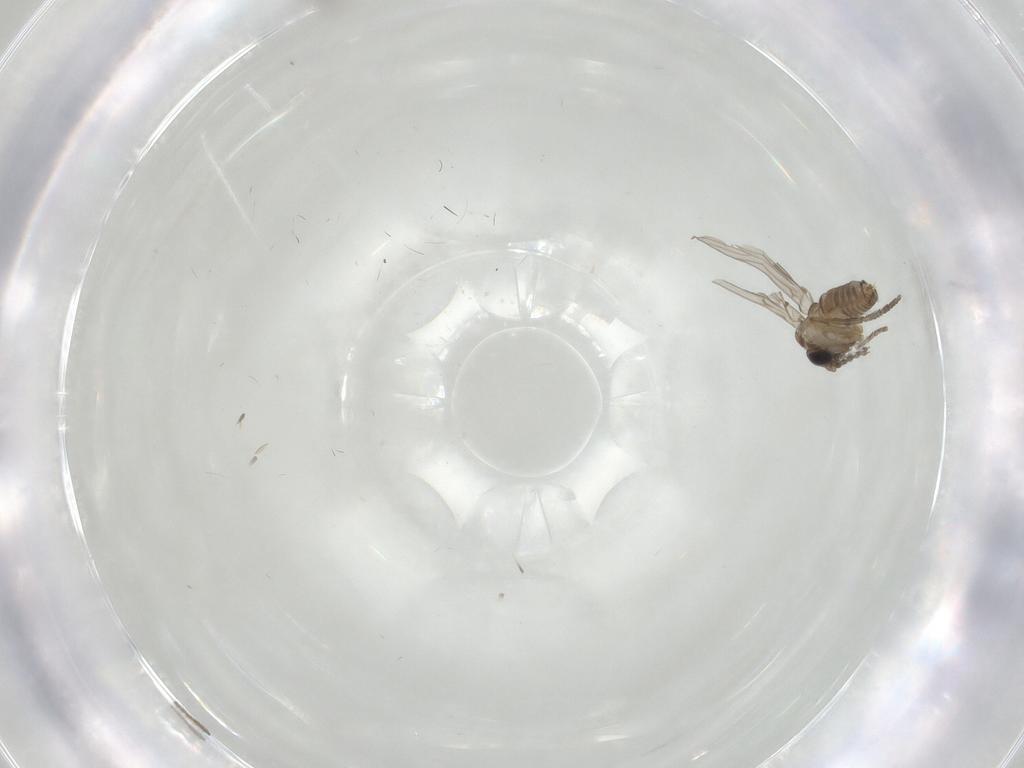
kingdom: Animalia
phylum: Arthropoda
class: Insecta
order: Diptera
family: Psychodidae
